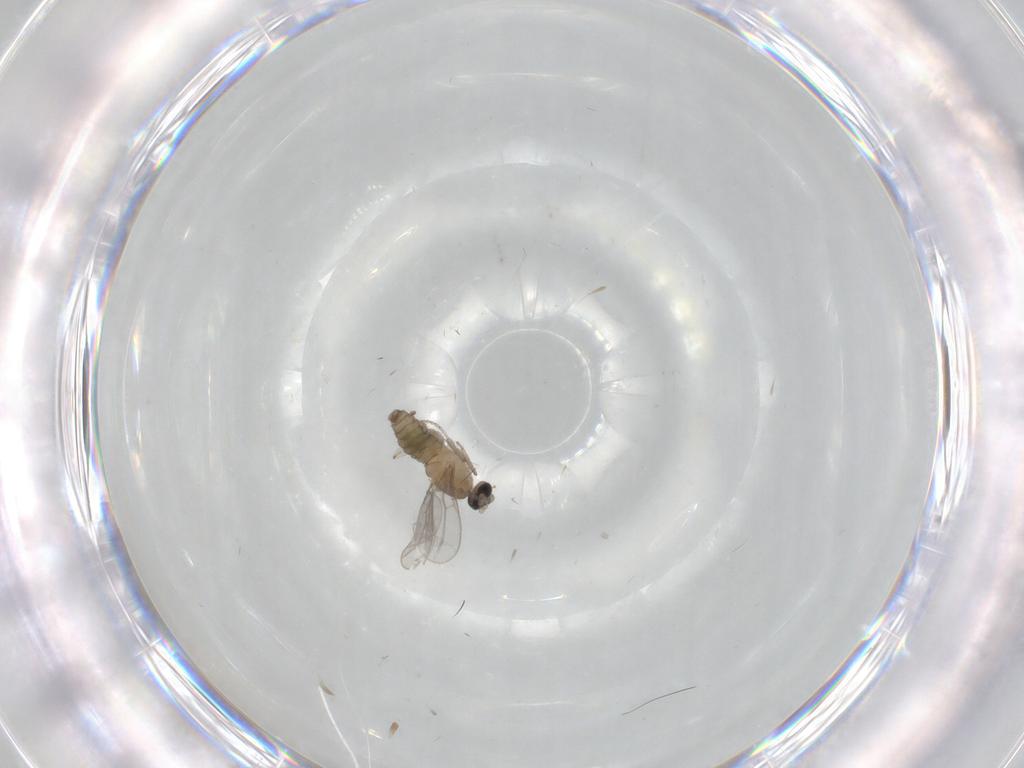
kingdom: Animalia
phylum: Arthropoda
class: Insecta
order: Diptera
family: Cecidomyiidae
